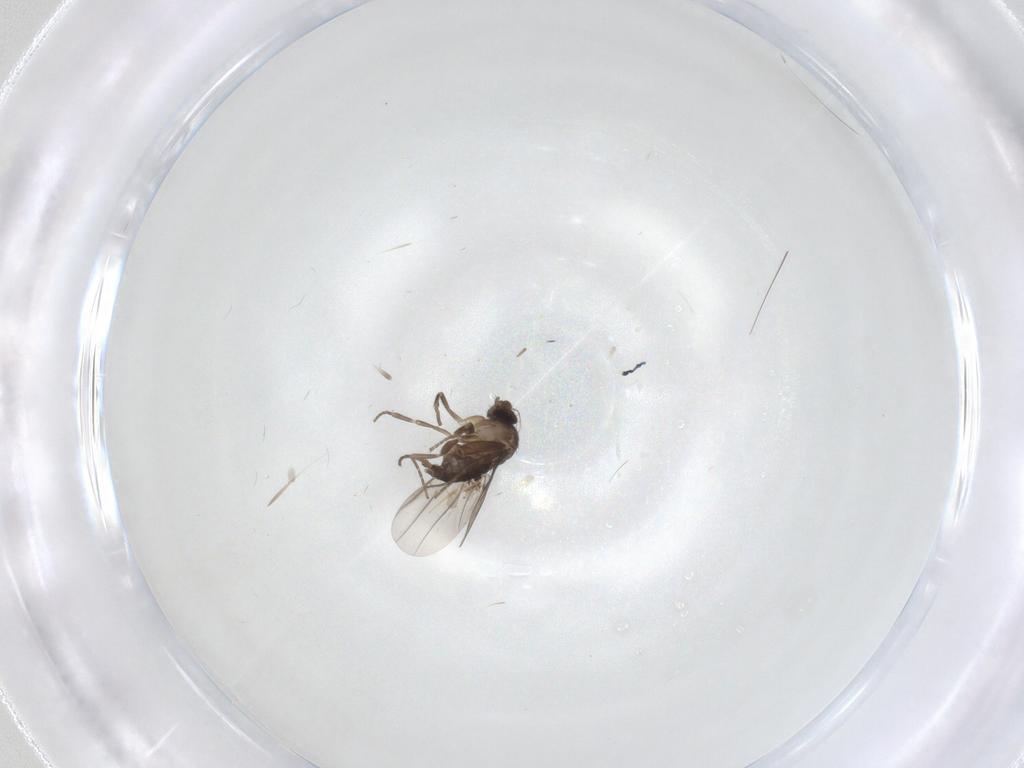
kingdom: Animalia
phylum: Arthropoda
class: Insecta
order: Diptera
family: Phoridae
